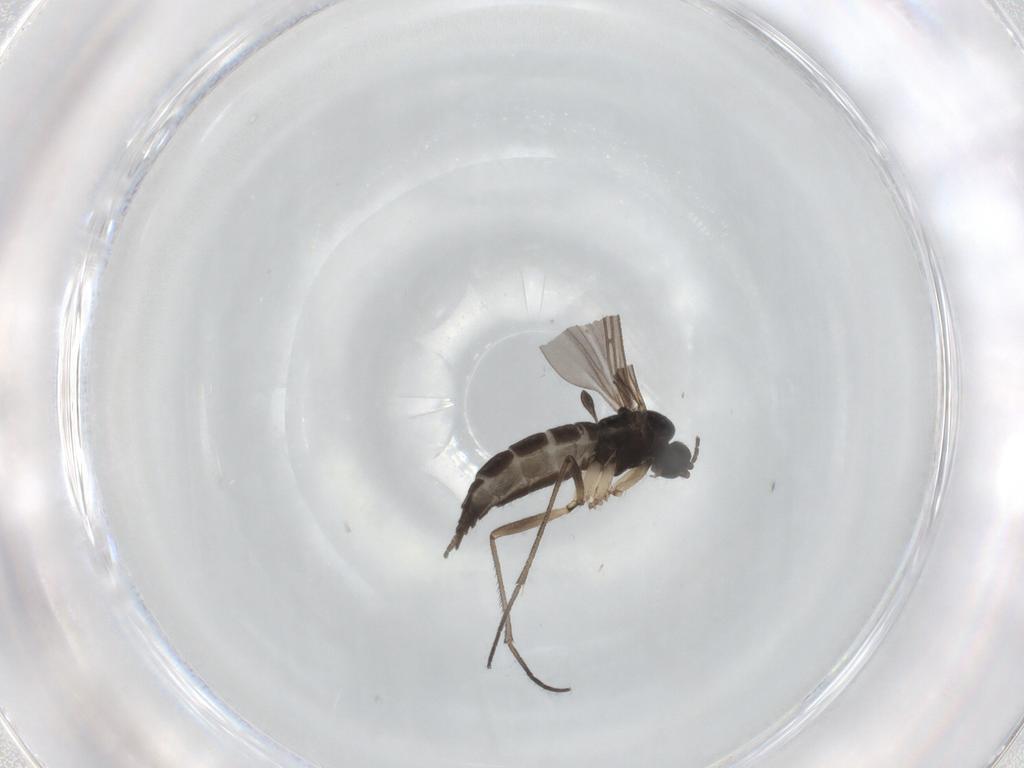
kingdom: Animalia
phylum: Arthropoda
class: Insecta
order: Diptera
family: Sciaridae
